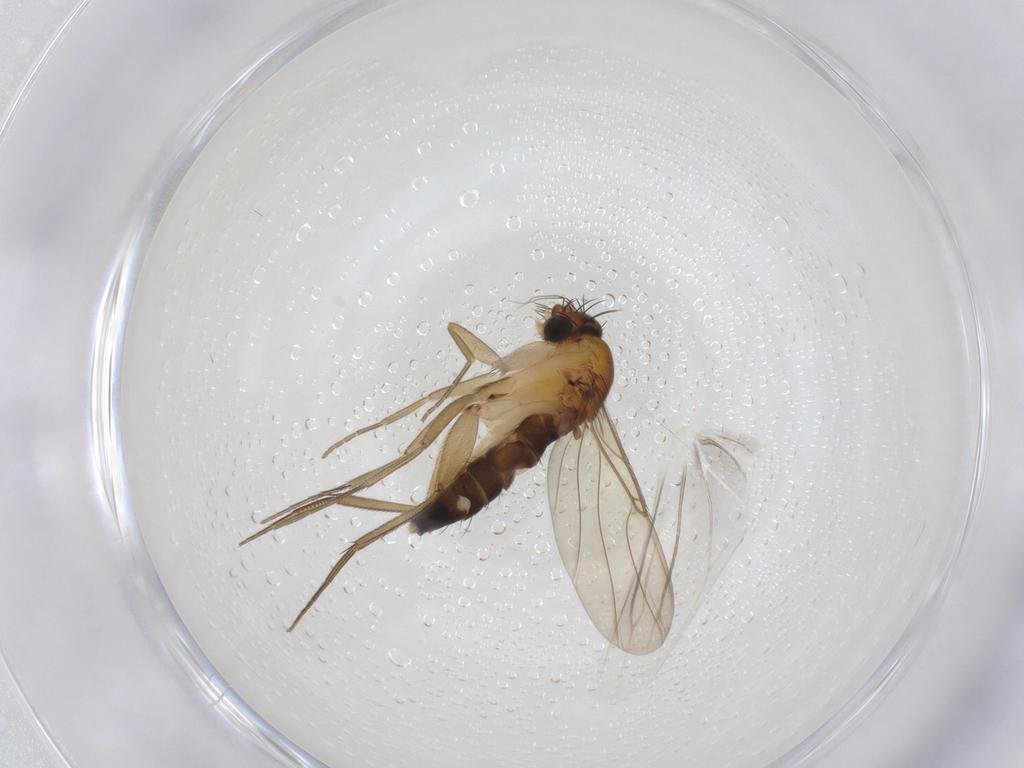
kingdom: Animalia
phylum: Arthropoda
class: Insecta
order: Diptera
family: Phoridae
